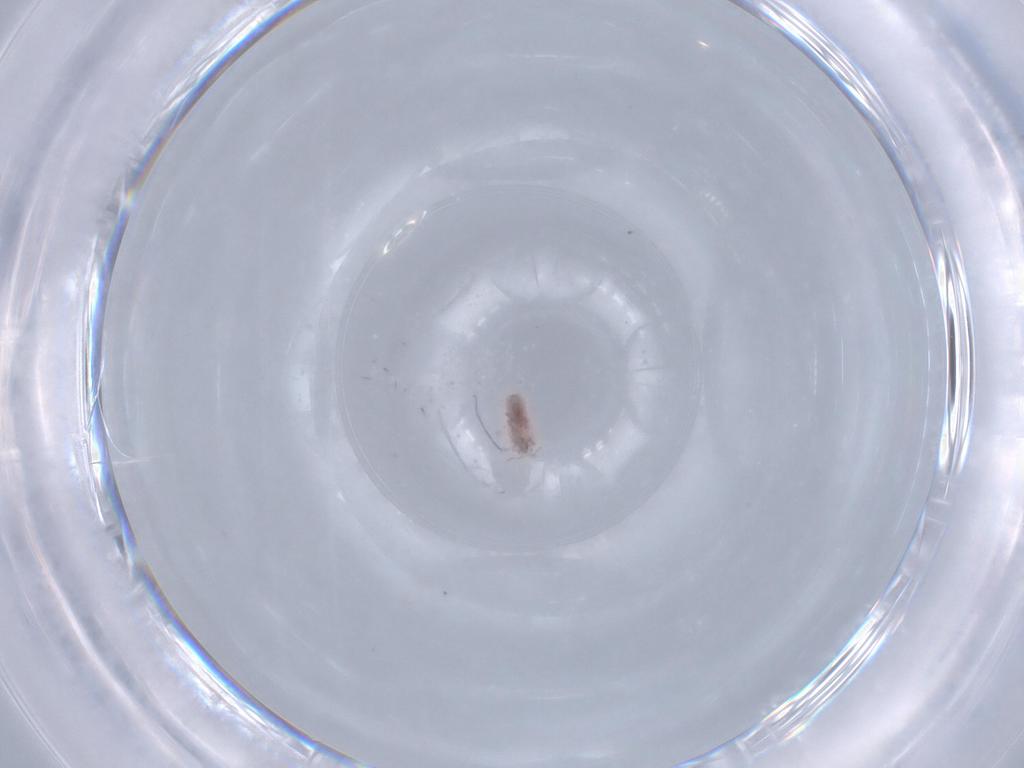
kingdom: Animalia
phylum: Arthropoda
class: Insecta
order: Hemiptera
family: Pseudococcidae
